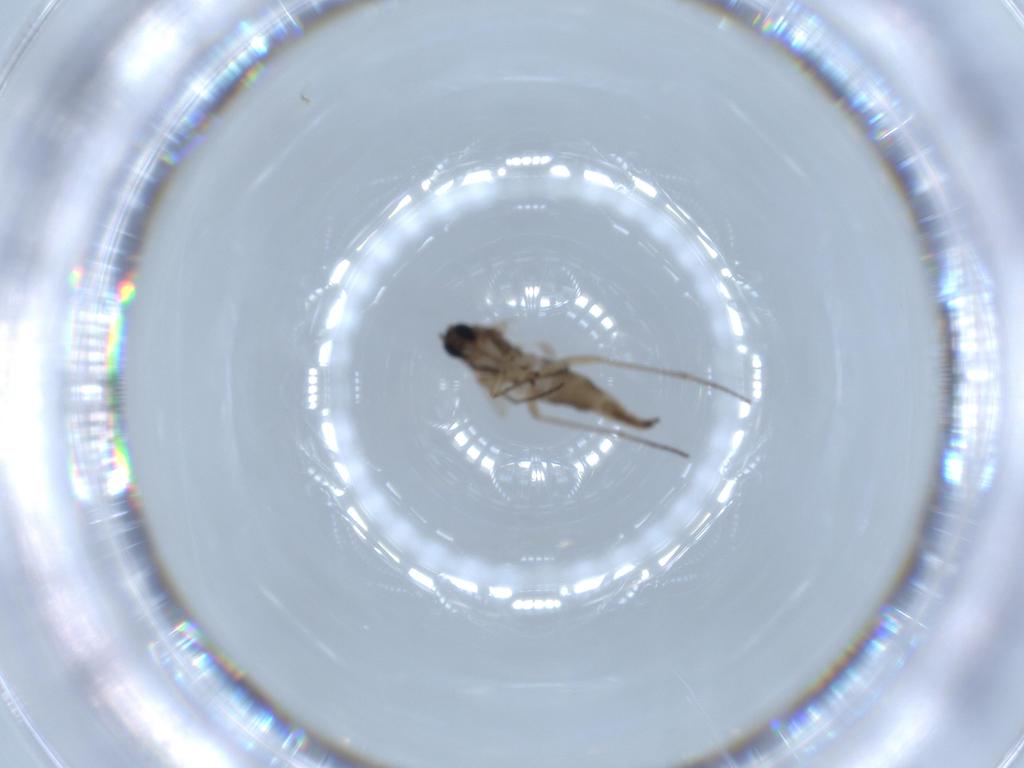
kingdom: Animalia
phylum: Arthropoda
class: Insecta
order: Diptera
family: Sciaridae
